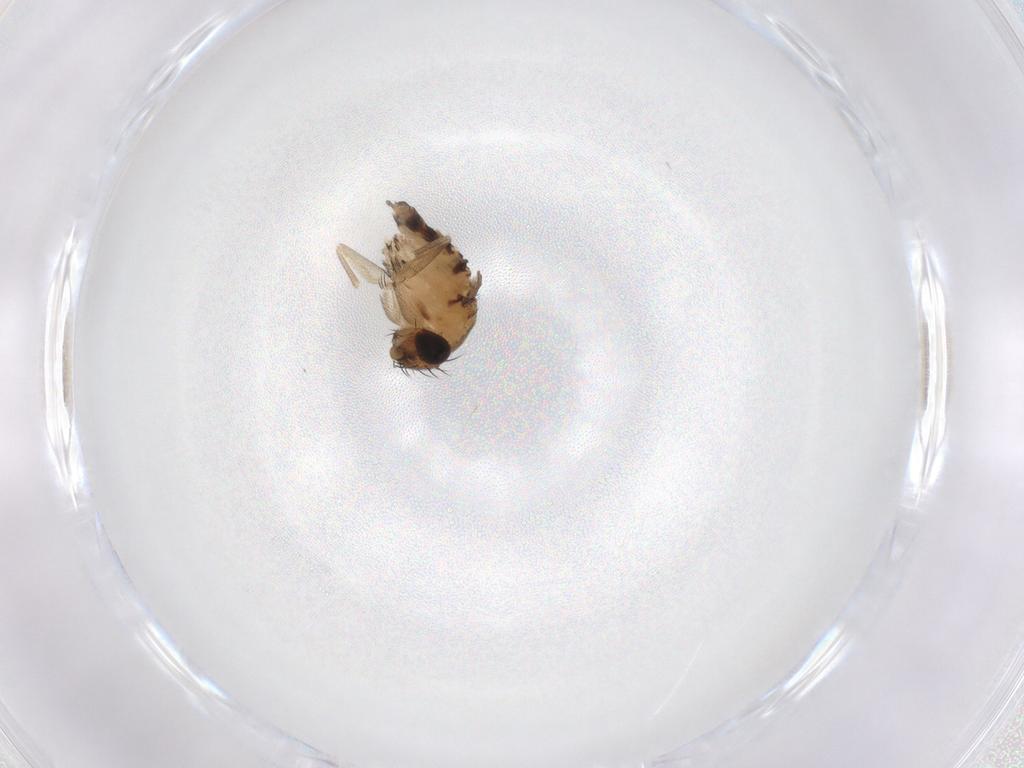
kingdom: Animalia
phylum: Arthropoda
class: Insecta
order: Diptera
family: Phoridae
